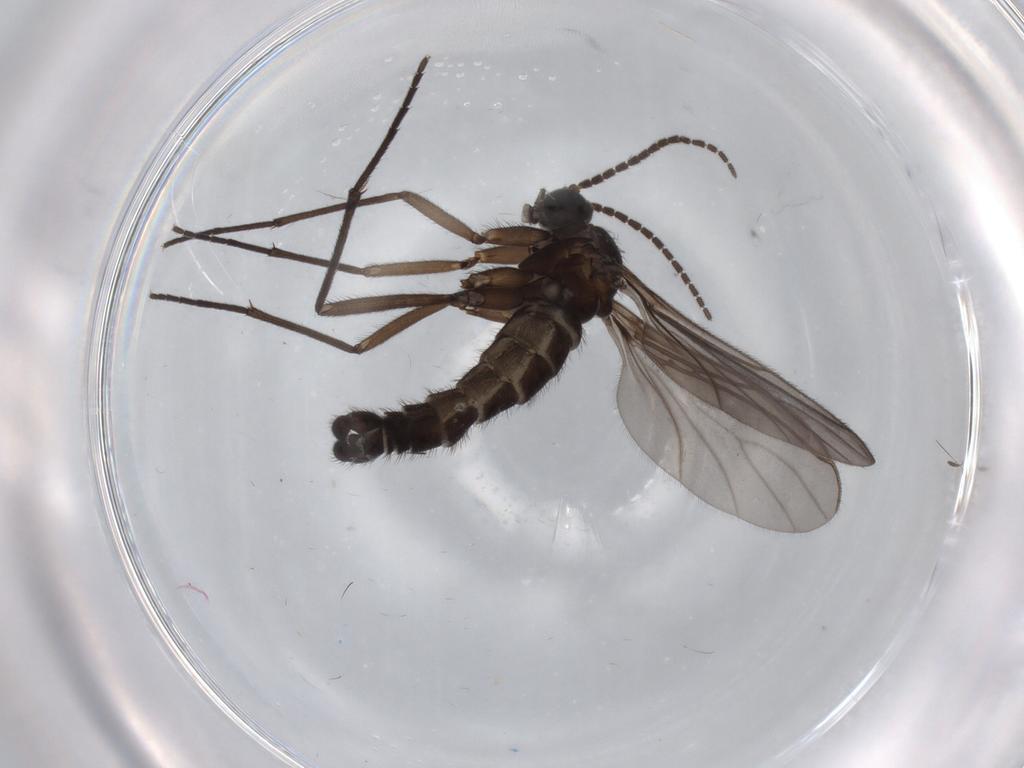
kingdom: Animalia
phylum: Arthropoda
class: Insecta
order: Diptera
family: Sciaridae
